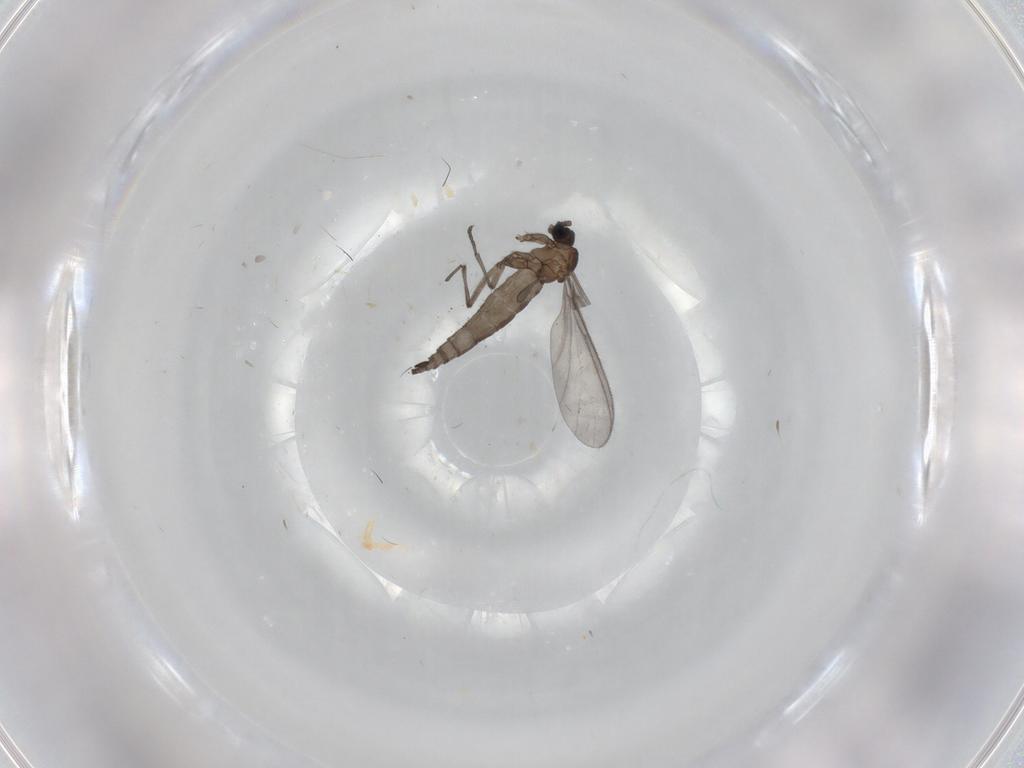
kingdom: Animalia
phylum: Arthropoda
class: Insecta
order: Diptera
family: Sciaridae
